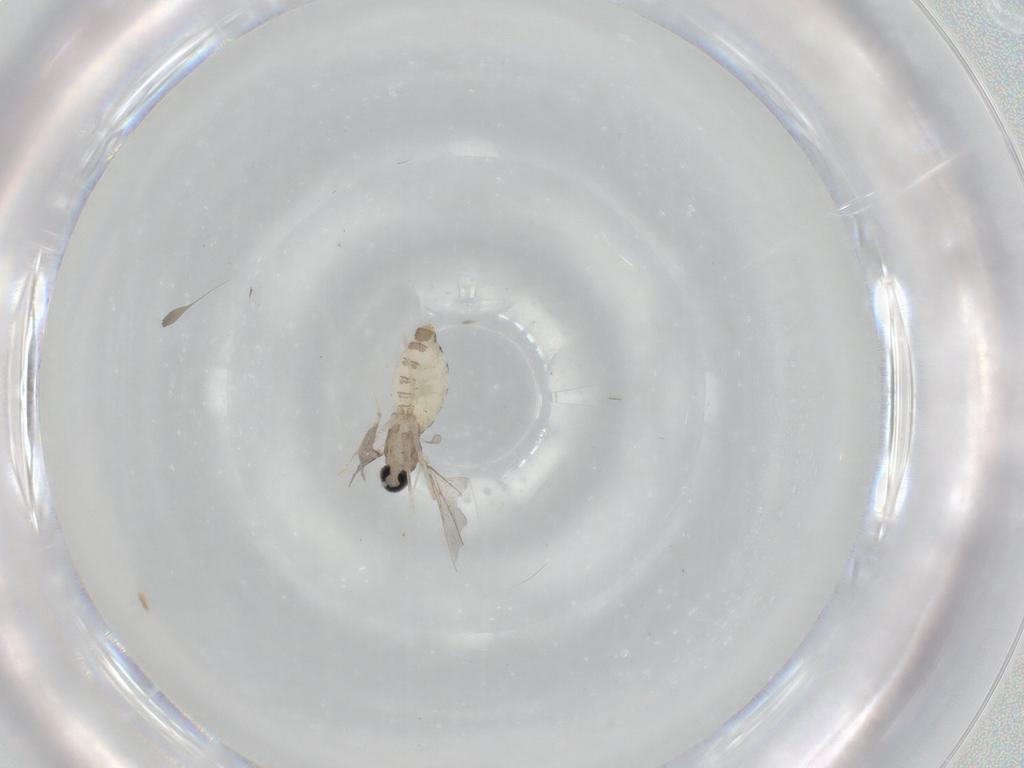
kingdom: Animalia
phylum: Arthropoda
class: Insecta
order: Diptera
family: Cecidomyiidae
